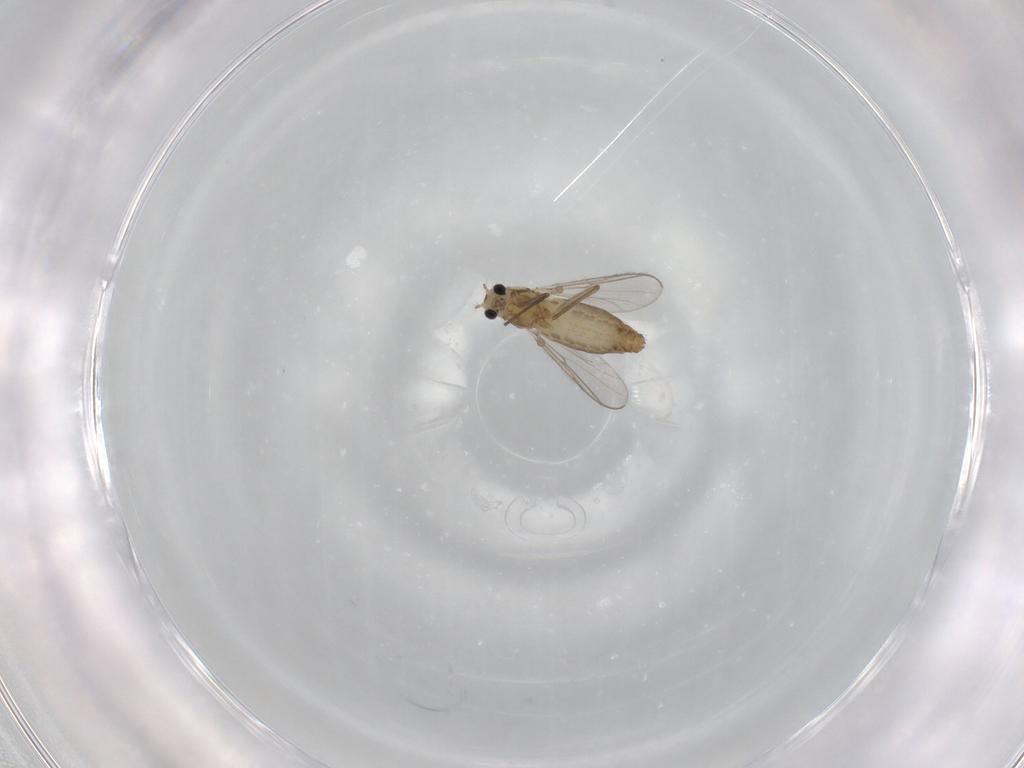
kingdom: Animalia
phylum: Arthropoda
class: Insecta
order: Diptera
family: Chironomidae
